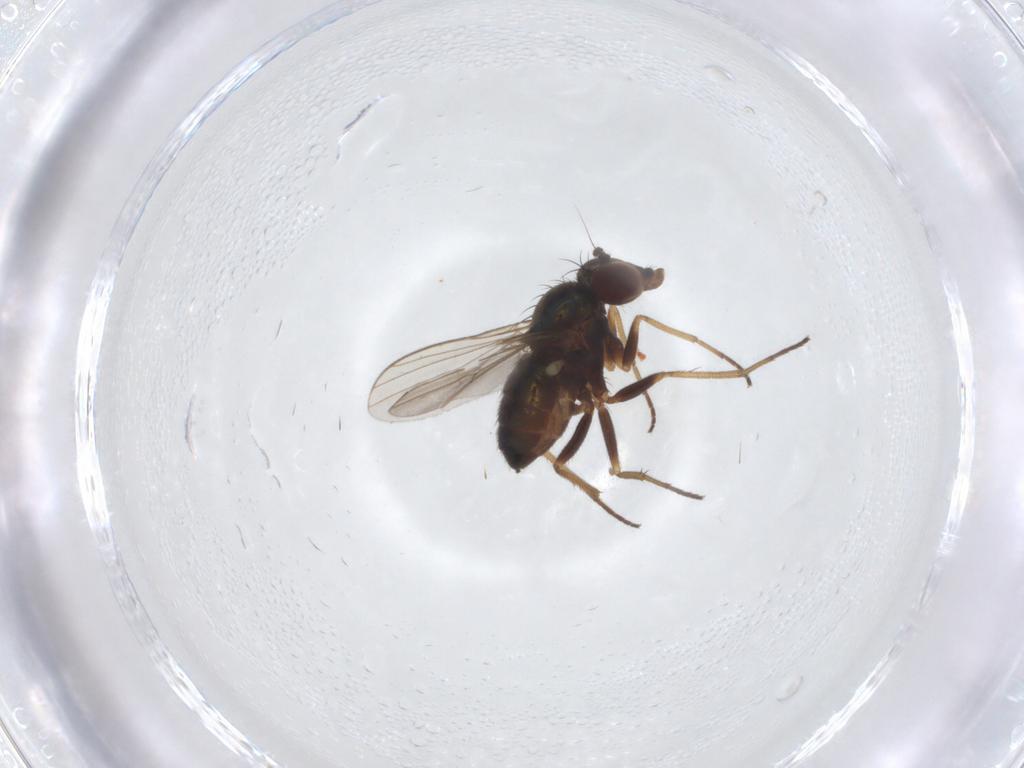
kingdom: Animalia
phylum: Arthropoda
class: Insecta
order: Diptera
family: Dolichopodidae
